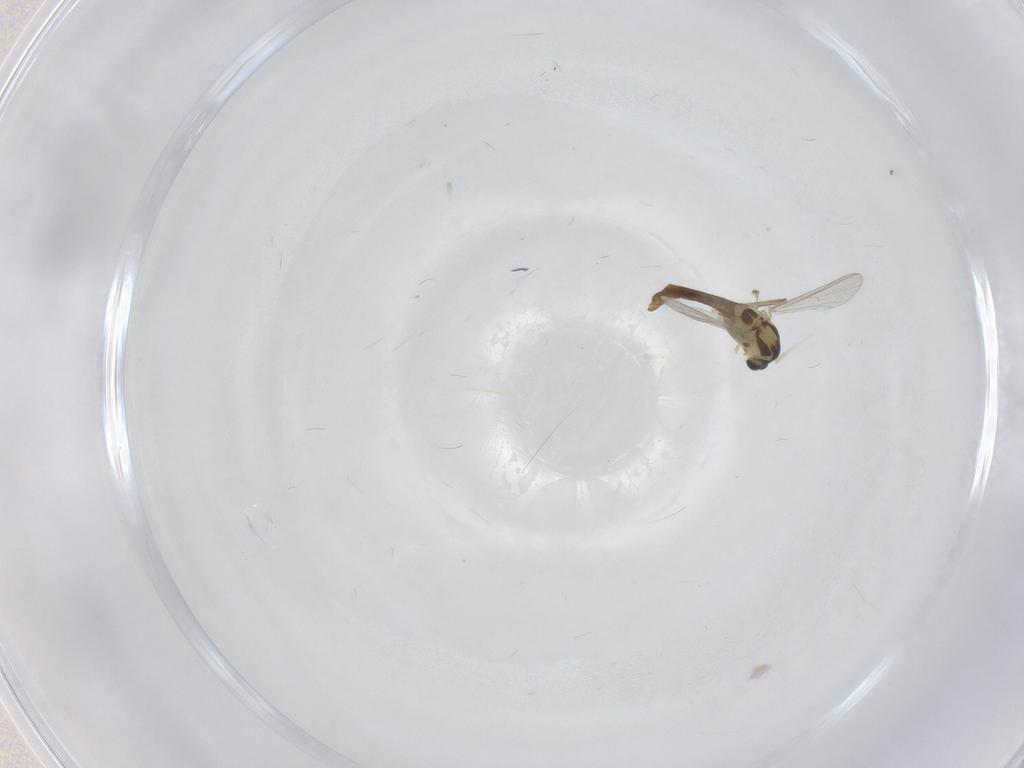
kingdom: Animalia
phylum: Arthropoda
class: Insecta
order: Diptera
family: Chironomidae
